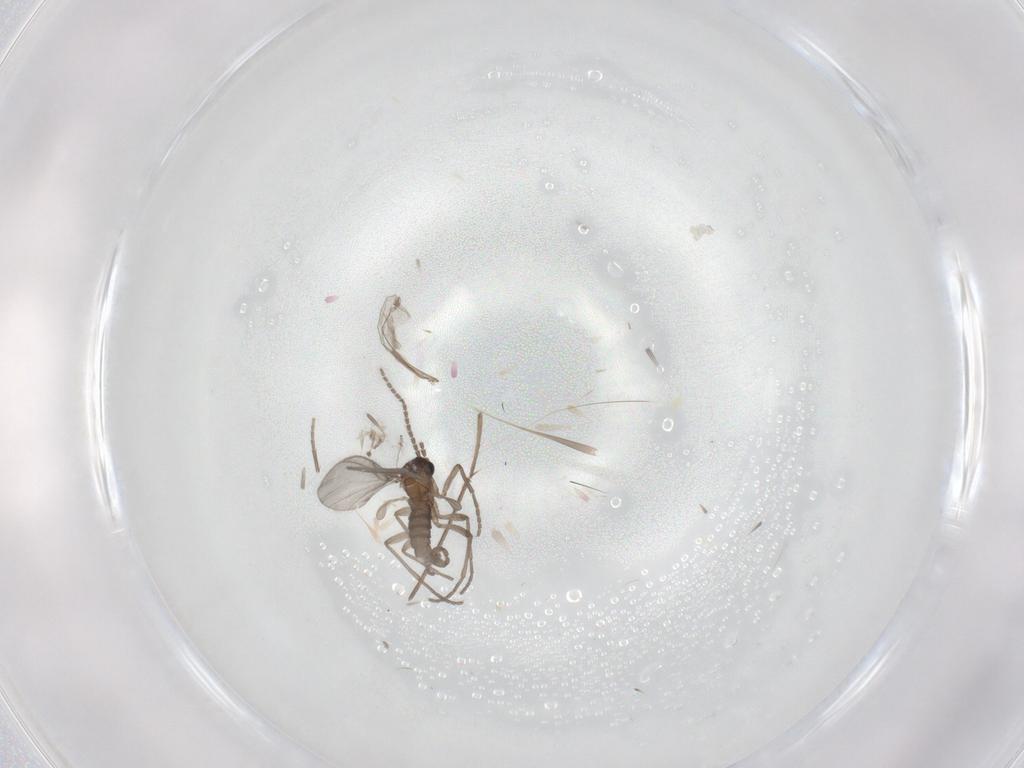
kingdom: Animalia
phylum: Arthropoda
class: Insecta
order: Diptera
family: Sciaridae
